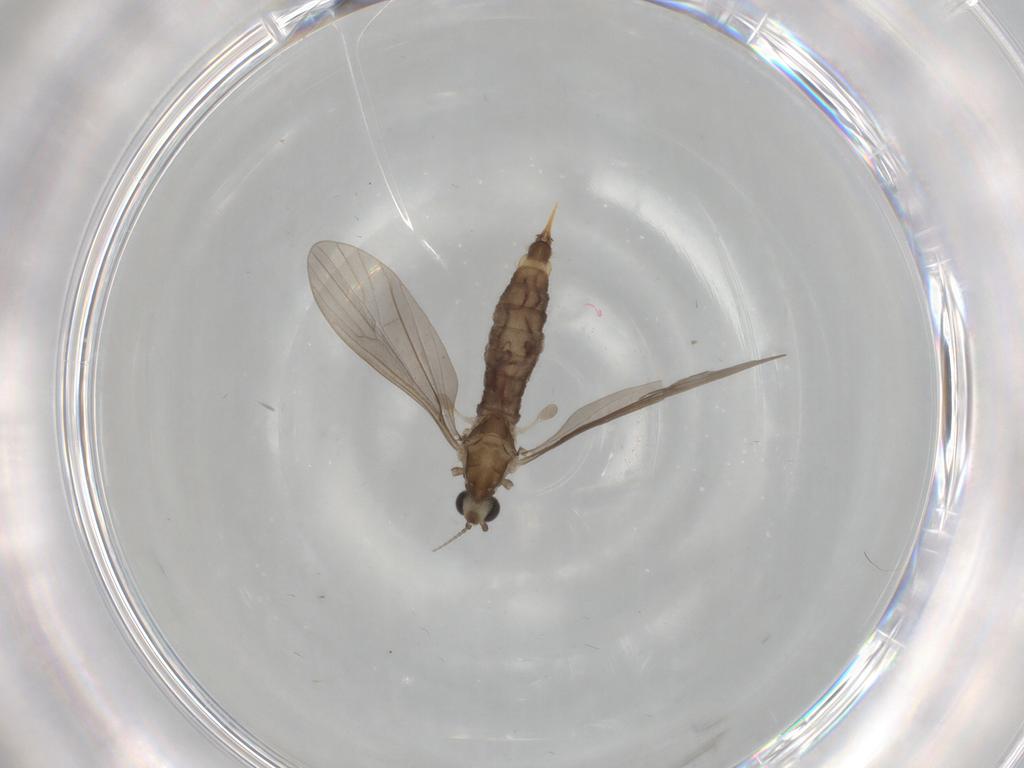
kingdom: Animalia
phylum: Arthropoda
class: Insecta
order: Diptera
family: Limoniidae
